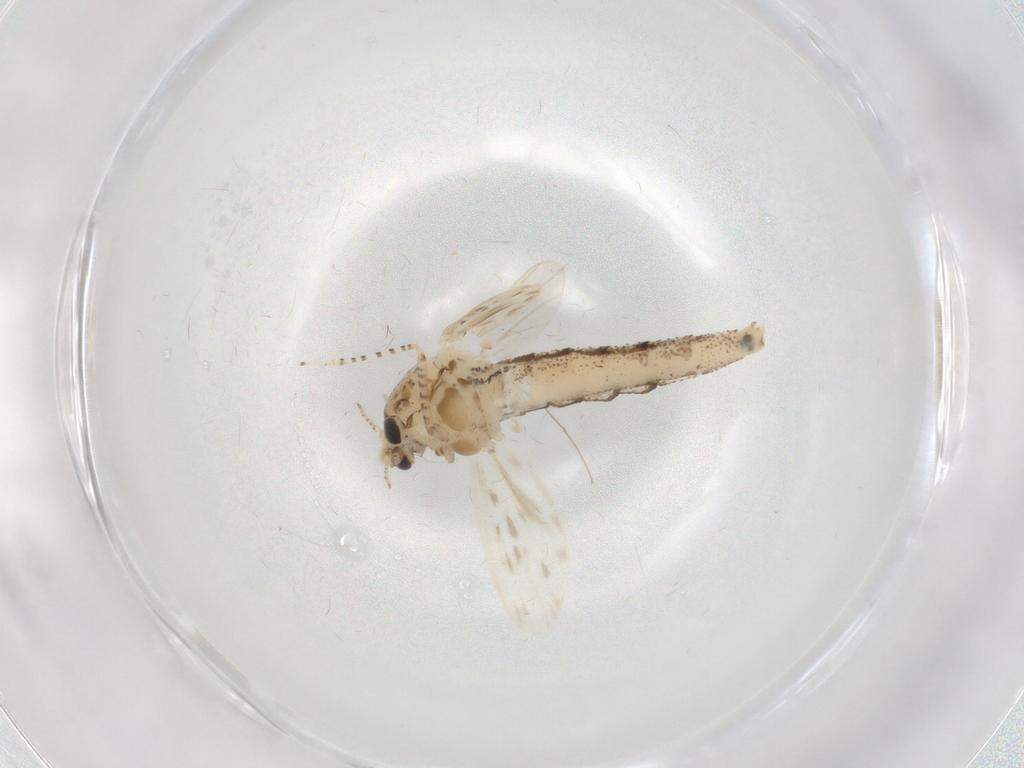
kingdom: Animalia
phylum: Arthropoda
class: Insecta
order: Diptera
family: Chaoboridae
